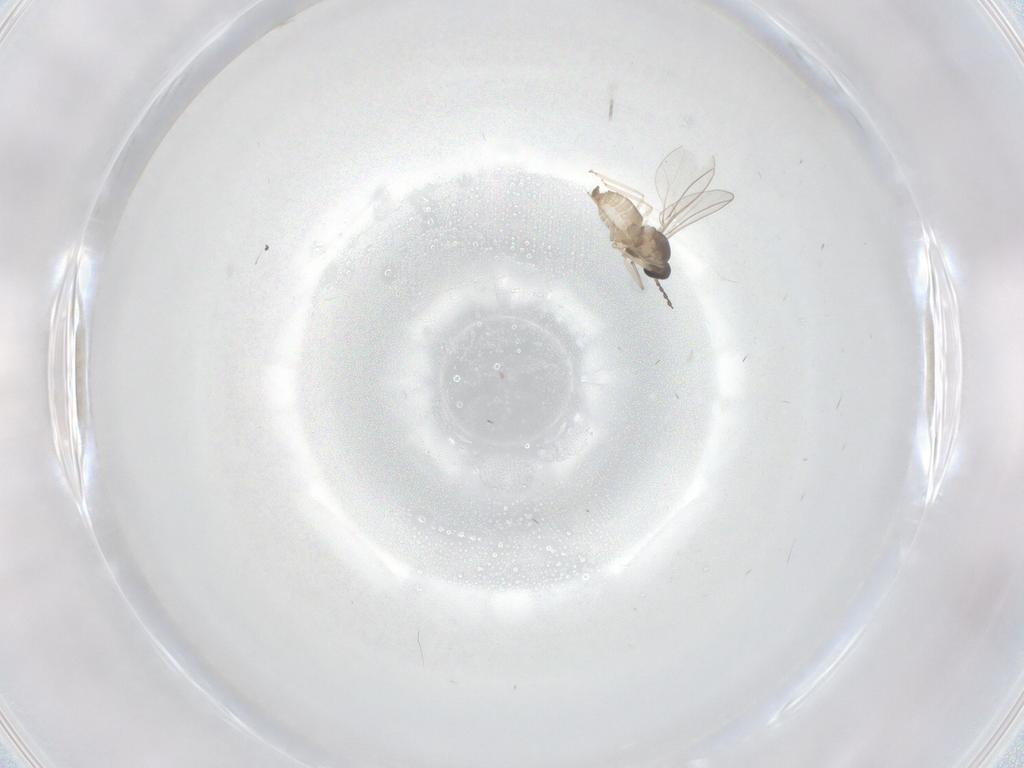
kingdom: Animalia
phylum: Arthropoda
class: Insecta
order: Diptera
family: Cecidomyiidae
